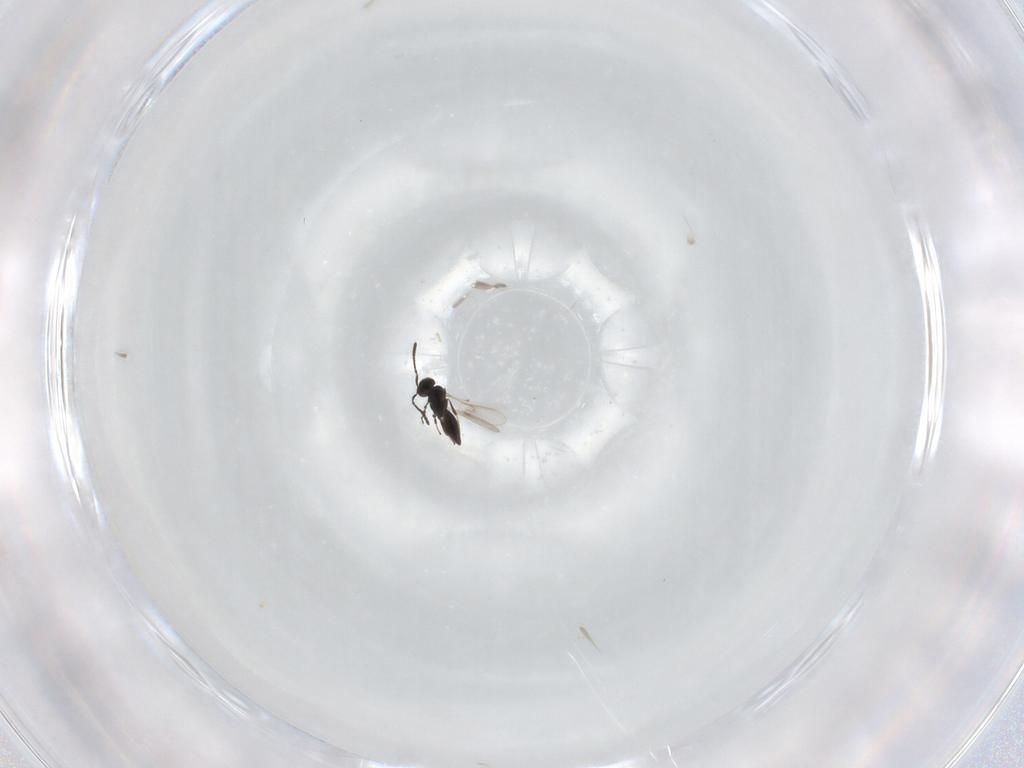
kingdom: Animalia
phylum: Arthropoda
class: Insecta
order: Hymenoptera
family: Scelionidae
